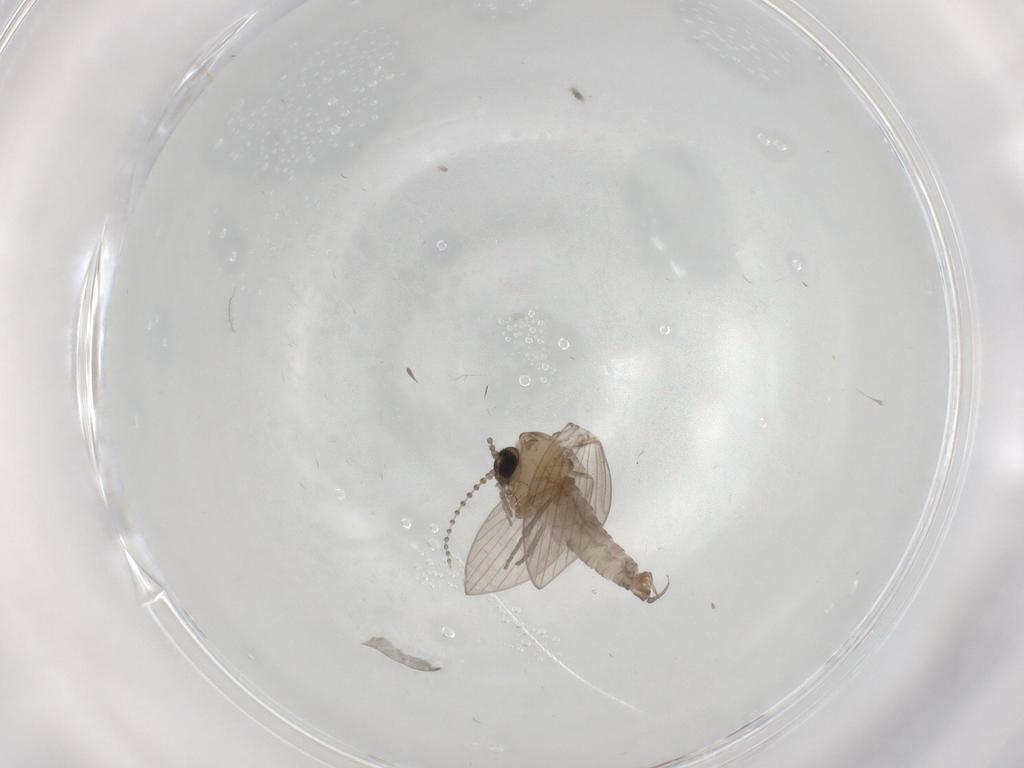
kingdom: Animalia
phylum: Arthropoda
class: Insecta
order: Diptera
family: Psychodidae
